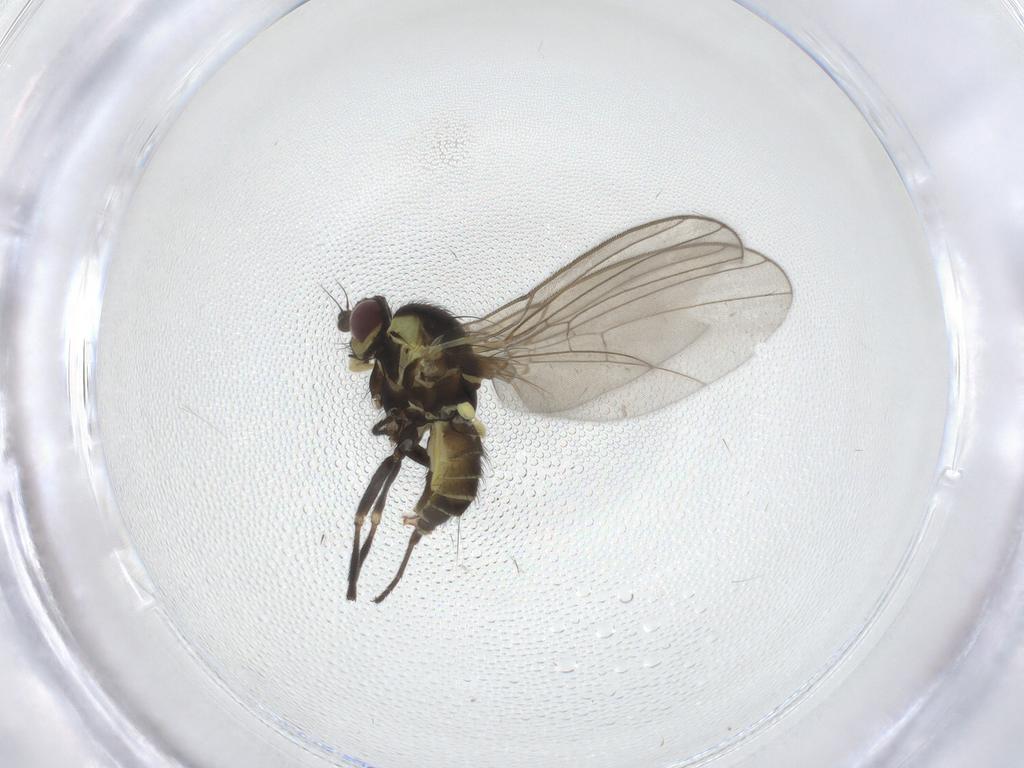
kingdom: Animalia
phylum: Arthropoda
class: Insecta
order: Diptera
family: Agromyzidae
